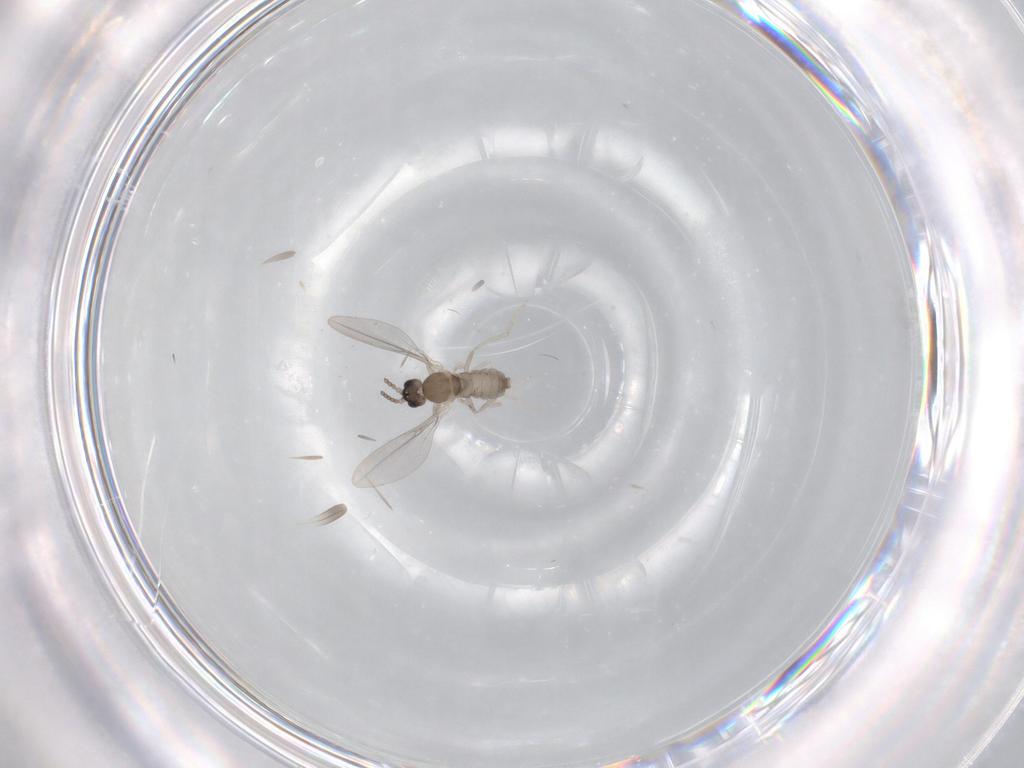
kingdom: Animalia
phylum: Arthropoda
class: Insecta
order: Diptera
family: Cecidomyiidae
